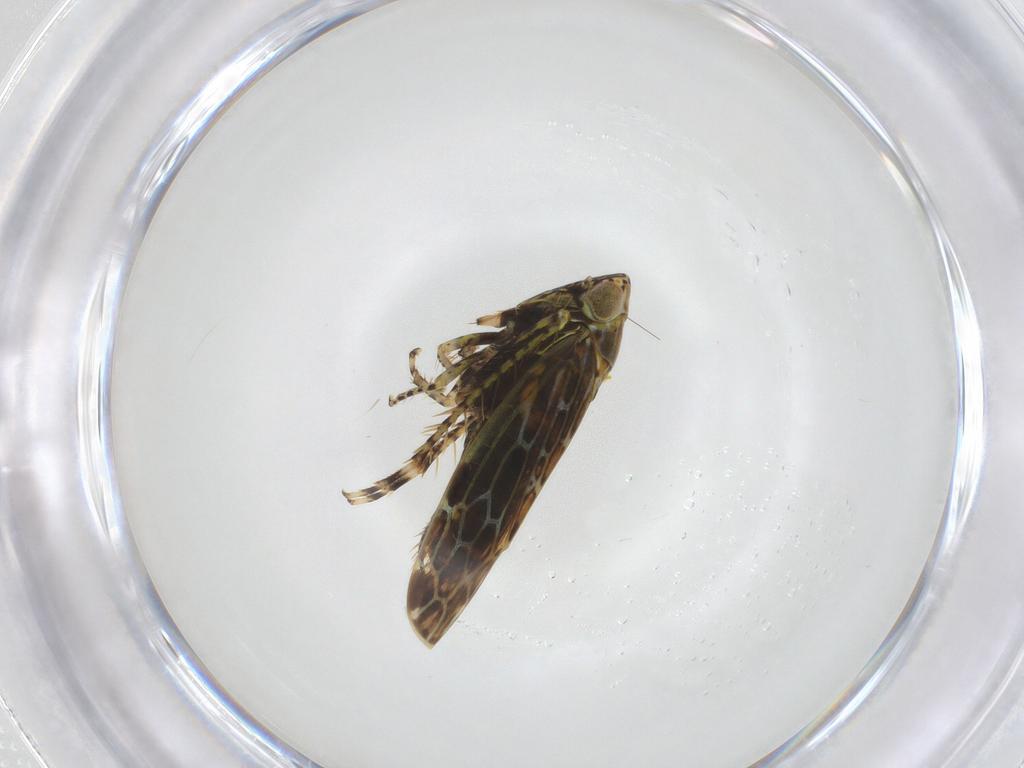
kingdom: Animalia
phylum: Arthropoda
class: Insecta
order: Hemiptera
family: Cicadellidae
